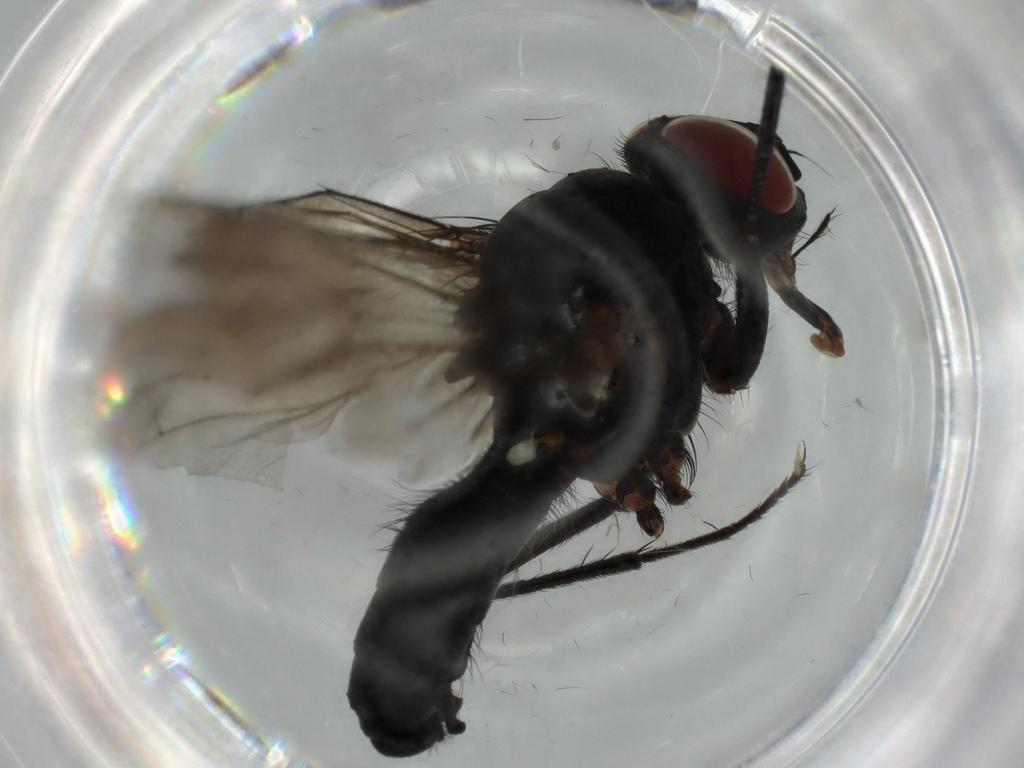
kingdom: Animalia
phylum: Arthropoda
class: Insecta
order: Diptera
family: Anthomyiidae
